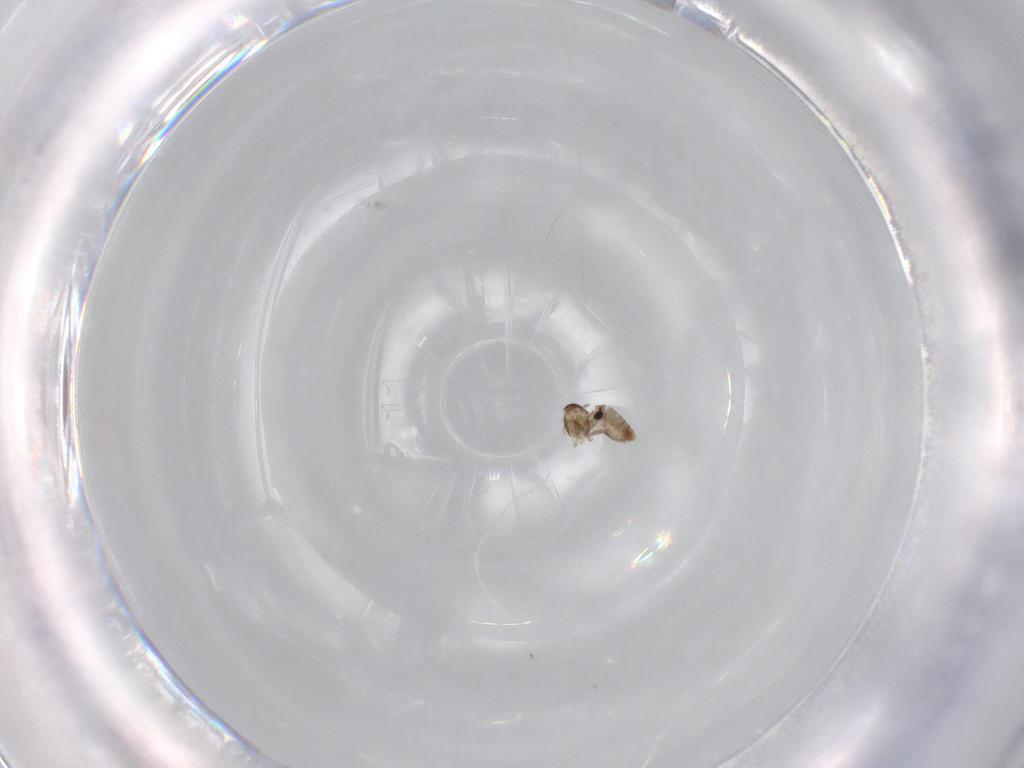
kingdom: Animalia
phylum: Arthropoda
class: Insecta
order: Diptera
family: Chironomidae
